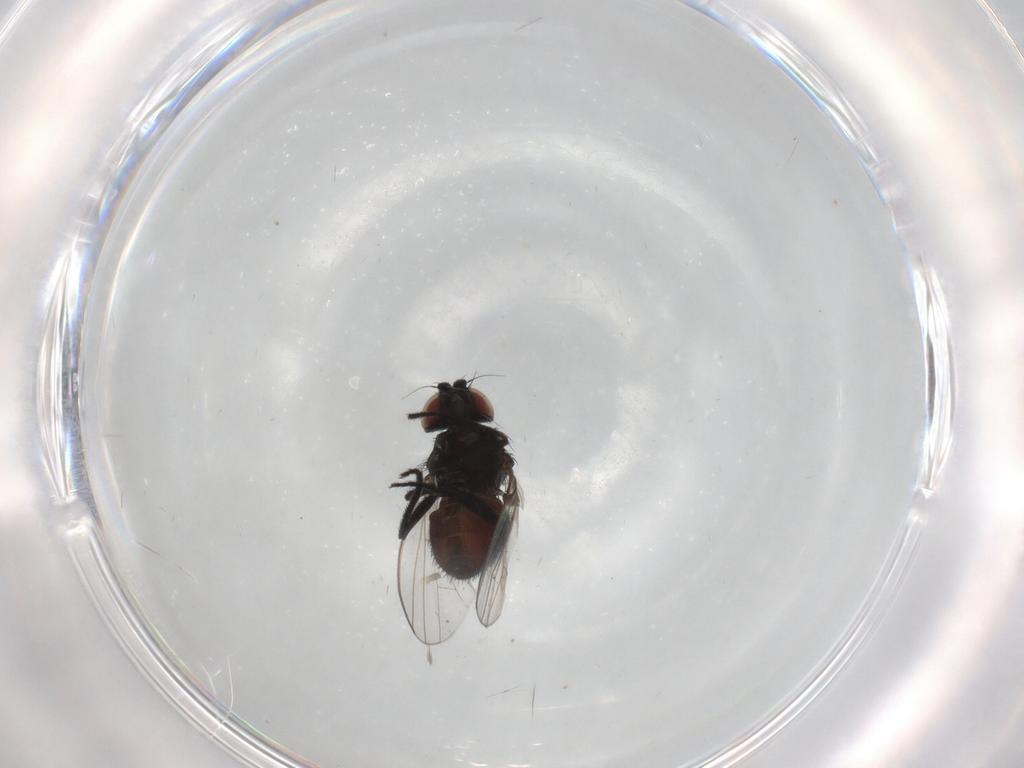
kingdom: Animalia
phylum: Arthropoda
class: Insecta
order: Diptera
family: Milichiidae
